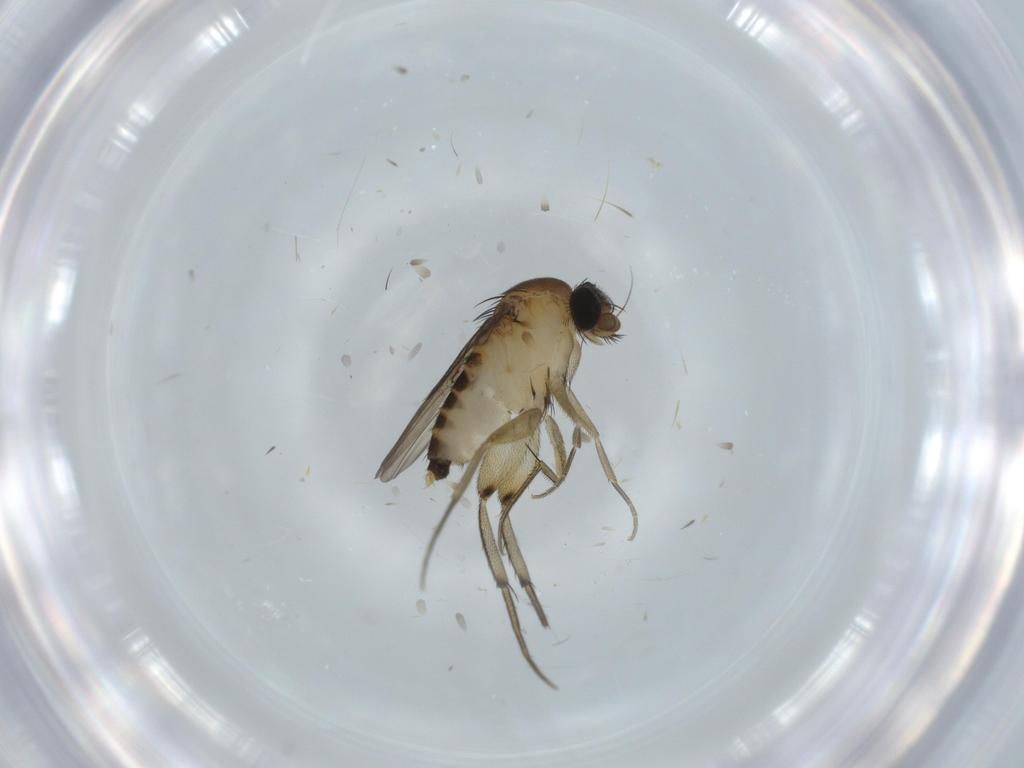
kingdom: Animalia
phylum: Arthropoda
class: Insecta
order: Diptera
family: Phoridae
